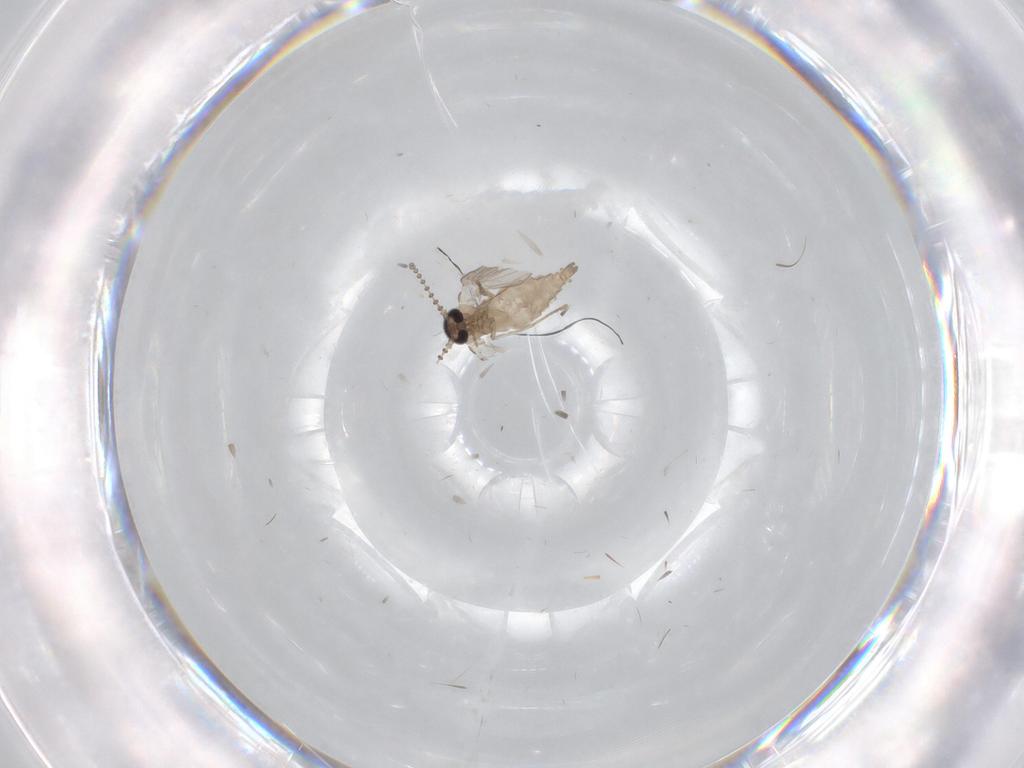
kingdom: Animalia
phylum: Arthropoda
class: Insecta
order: Diptera
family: Psychodidae
